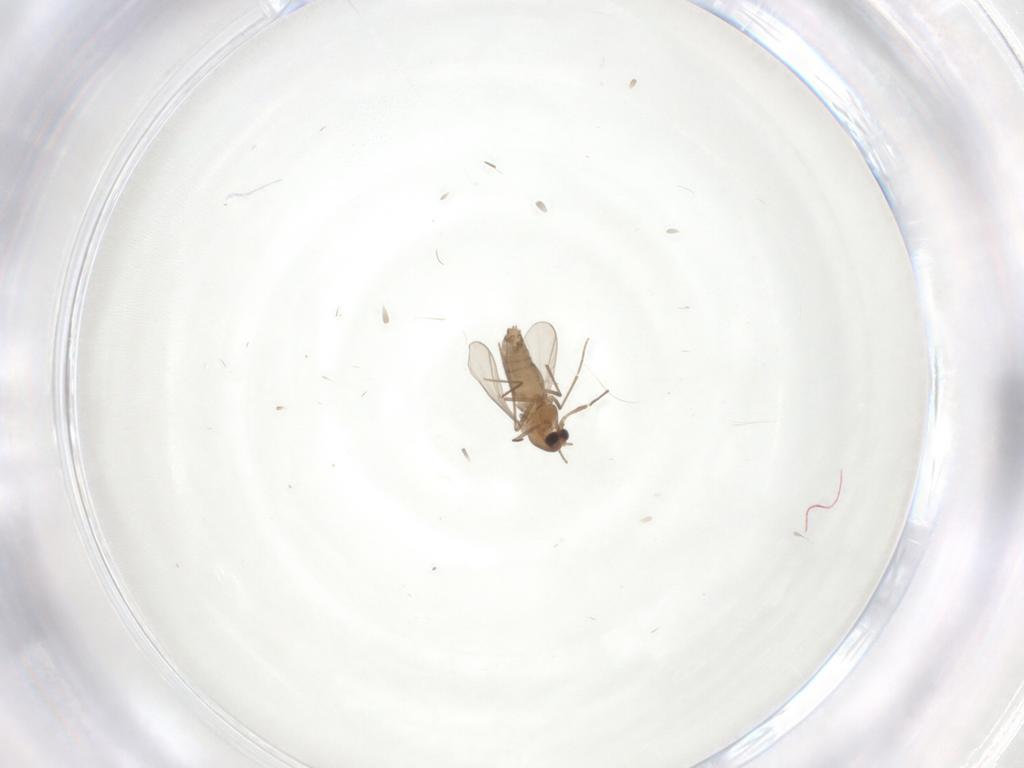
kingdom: Animalia
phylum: Arthropoda
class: Insecta
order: Diptera
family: Chironomidae
